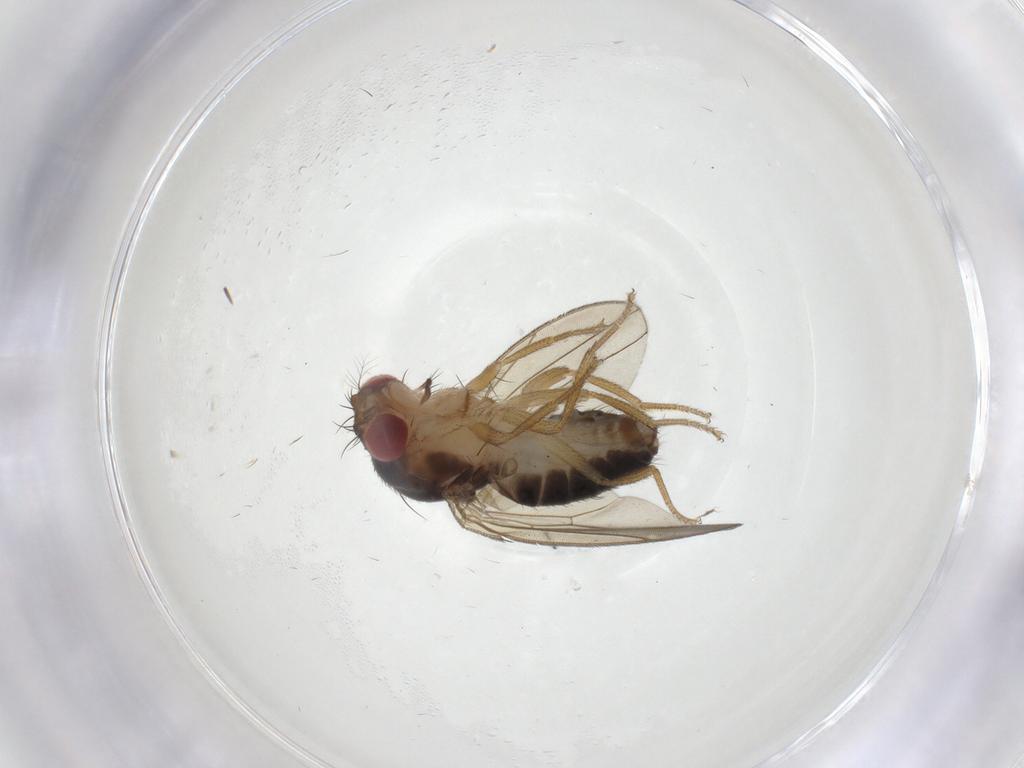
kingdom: Animalia
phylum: Arthropoda
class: Insecta
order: Diptera
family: Drosophilidae
